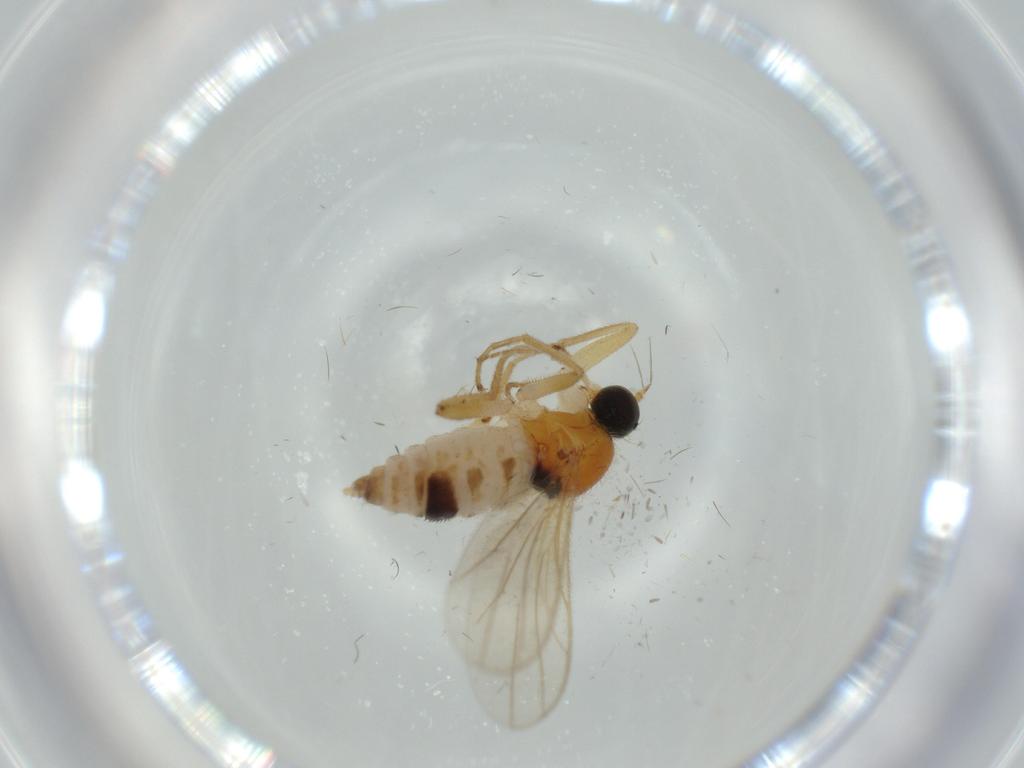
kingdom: Animalia
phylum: Arthropoda
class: Insecta
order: Diptera
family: Hybotidae
